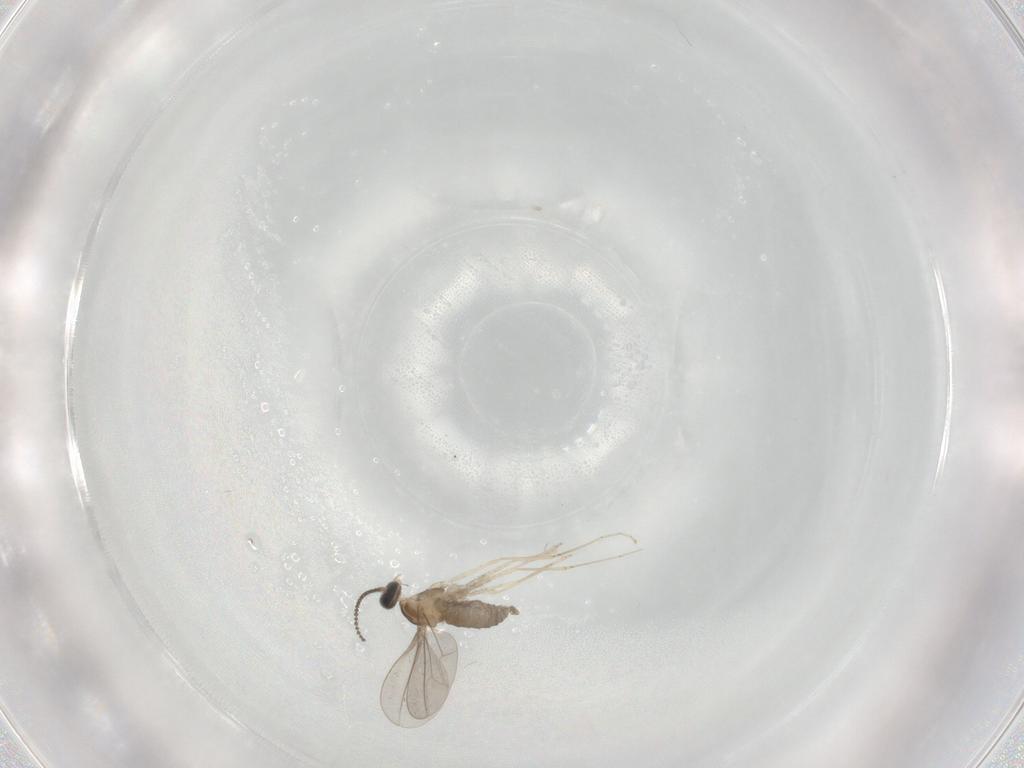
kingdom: Animalia
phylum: Arthropoda
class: Insecta
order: Diptera
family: Cecidomyiidae
